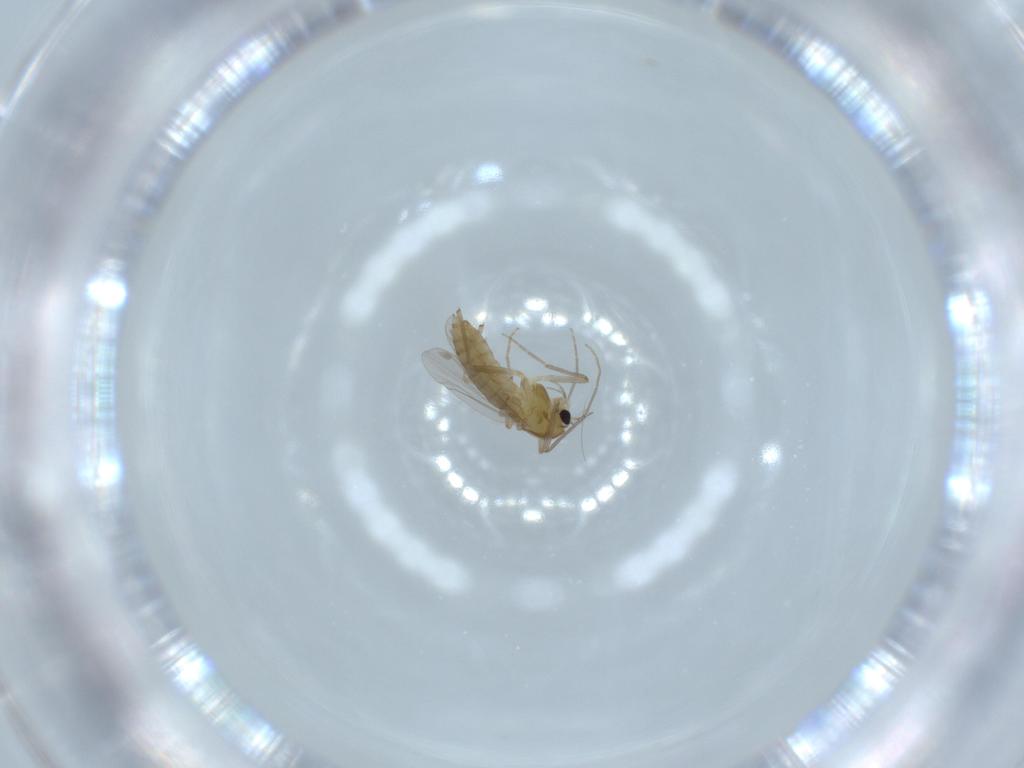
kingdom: Animalia
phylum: Arthropoda
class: Insecta
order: Diptera
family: Chironomidae
